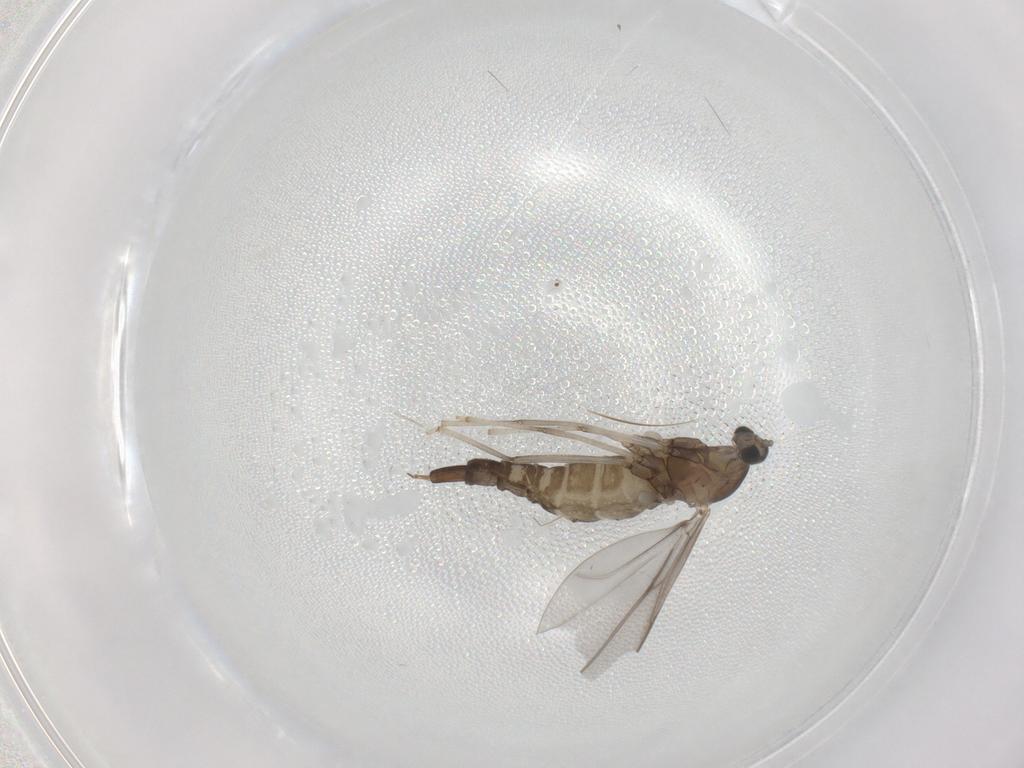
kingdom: Animalia
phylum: Arthropoda
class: Insecta
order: Diptera
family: Cecidomyiidae
